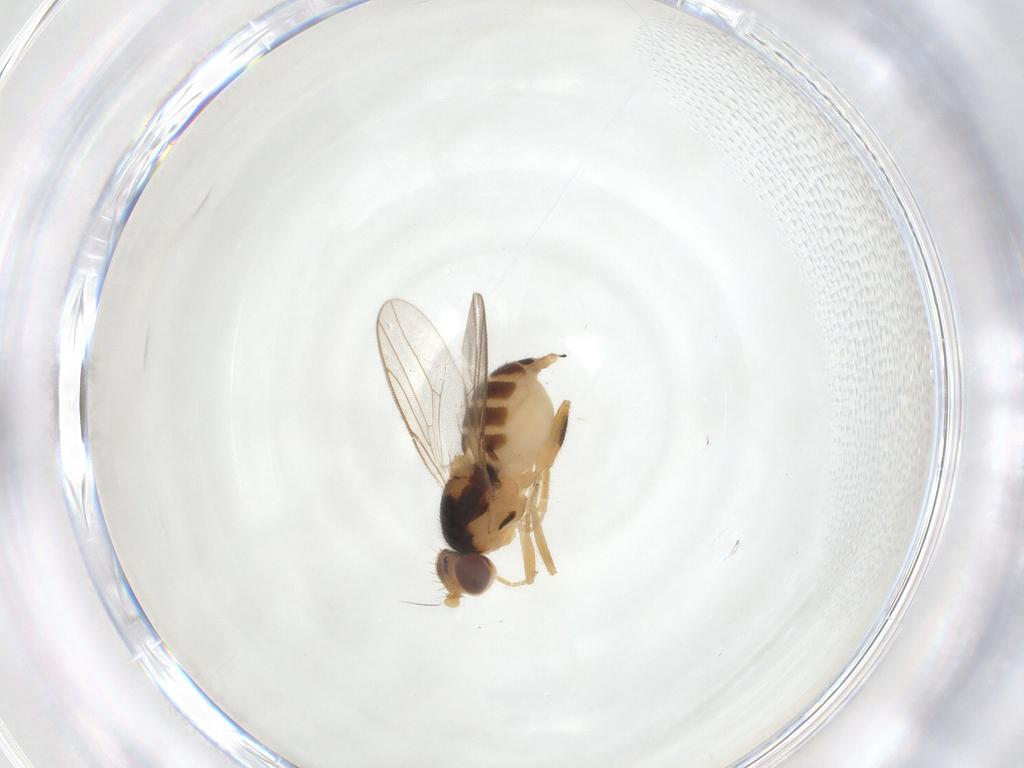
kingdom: Animalia
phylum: Arthropoda
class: Insecta
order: Diptera
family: Chloropidae
